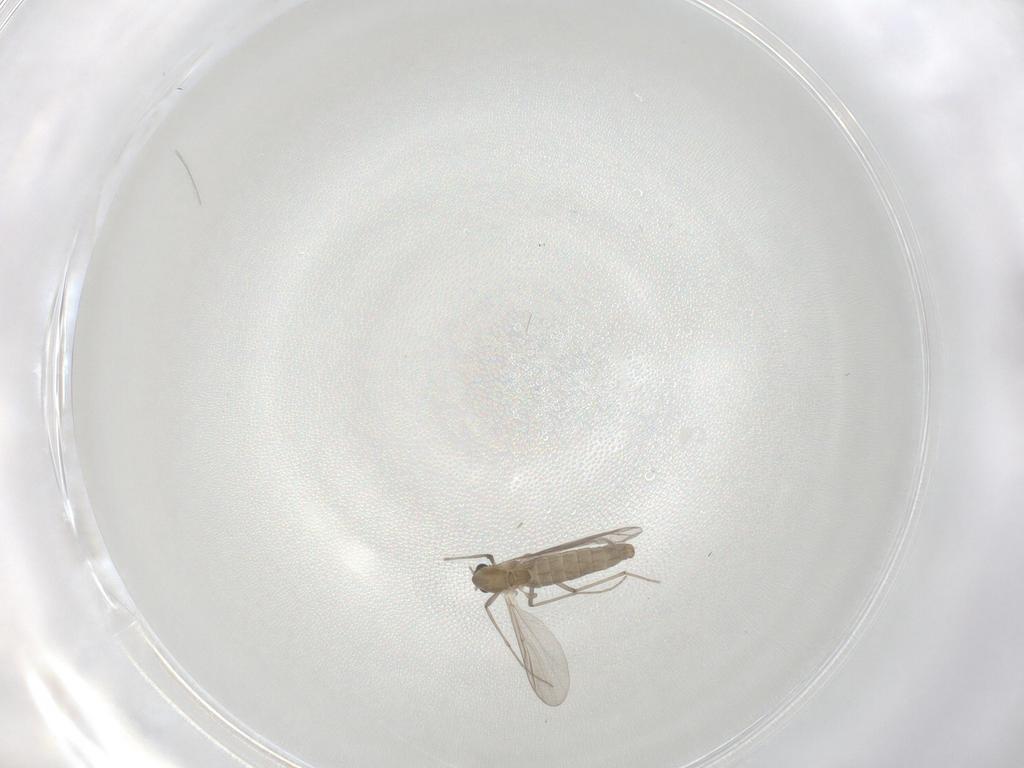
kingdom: Animalia
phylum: Arthropoda
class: Insecta
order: Diptera
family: Chironomidae
